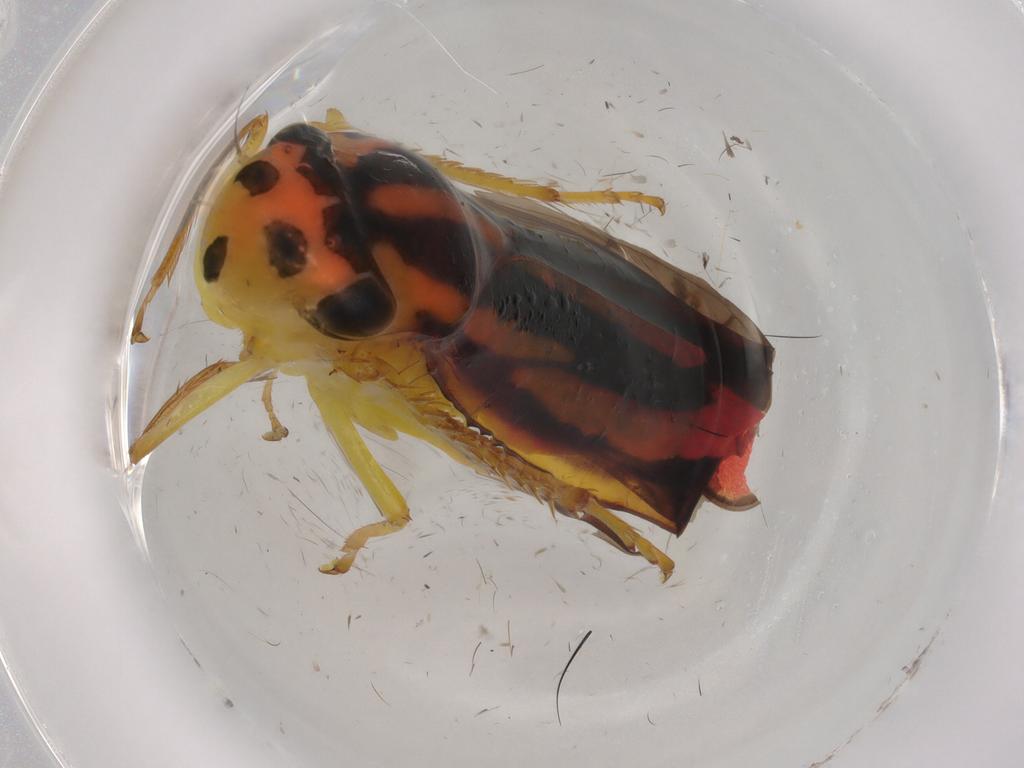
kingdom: Animalia
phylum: Arthropoda
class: Insecta
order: Hemiptera
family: Cicadellidae
